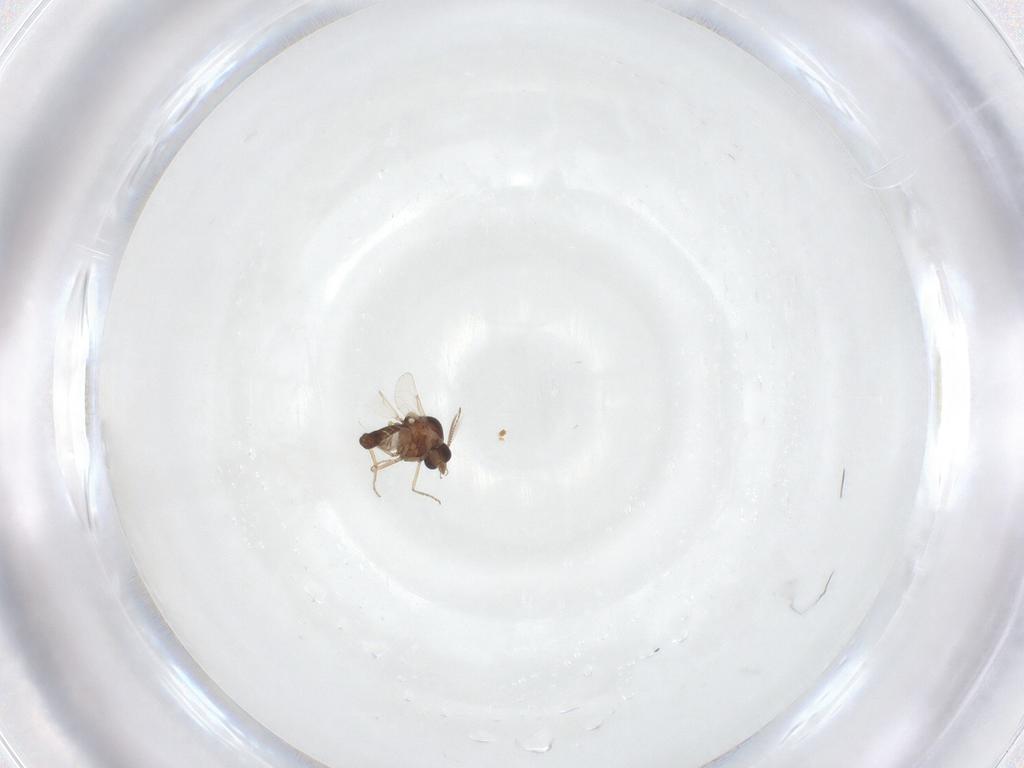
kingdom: Animalia
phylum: Arthropoda
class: Insecta
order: Diptera
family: Ceratopogonidae
